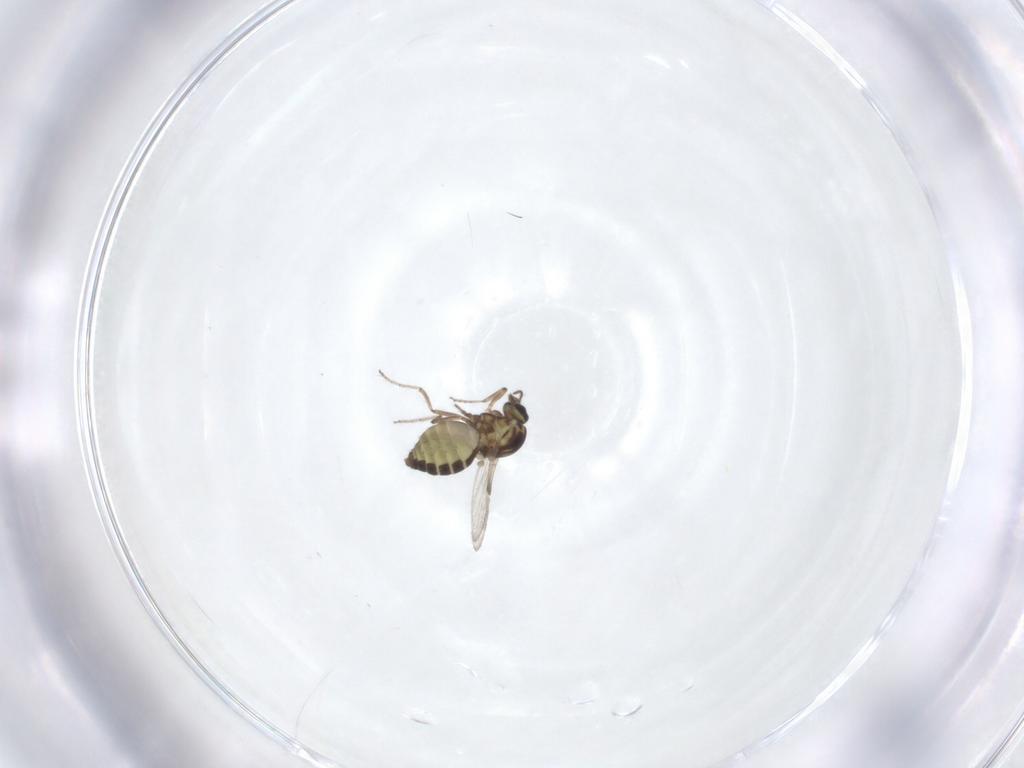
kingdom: Animalia
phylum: Arthropoda
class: Insecta
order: Diptera
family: Ceratopogonidae
